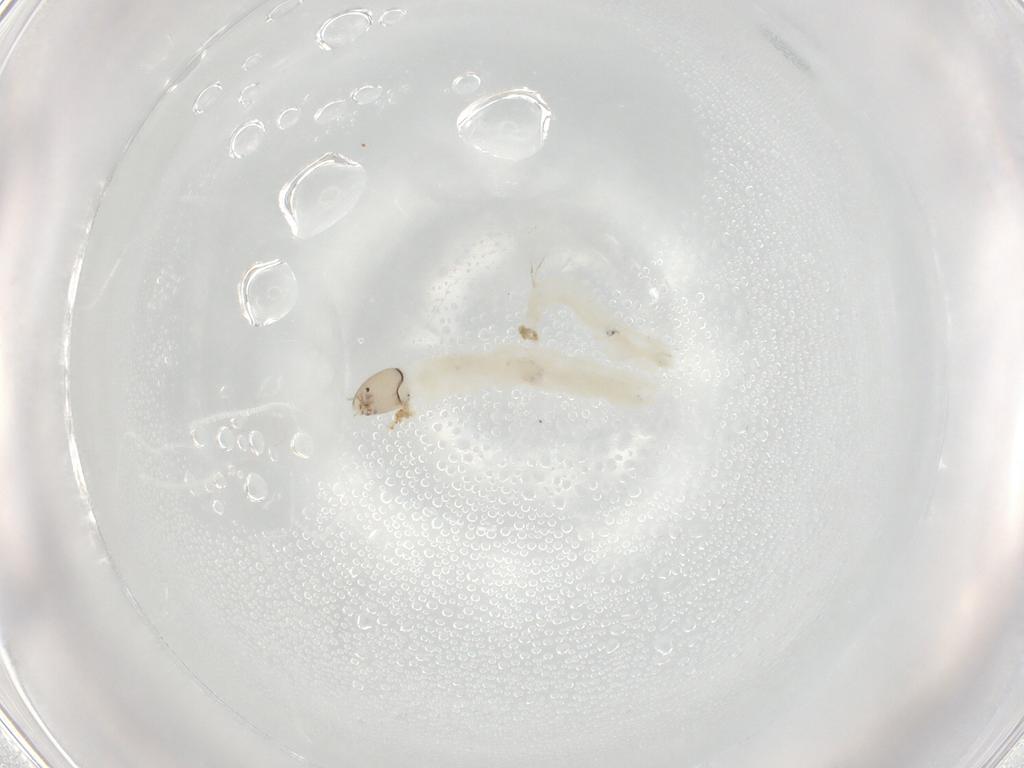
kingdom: Animalia
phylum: Arthropoda
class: Insecta
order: Diptera
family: Chironomidae
